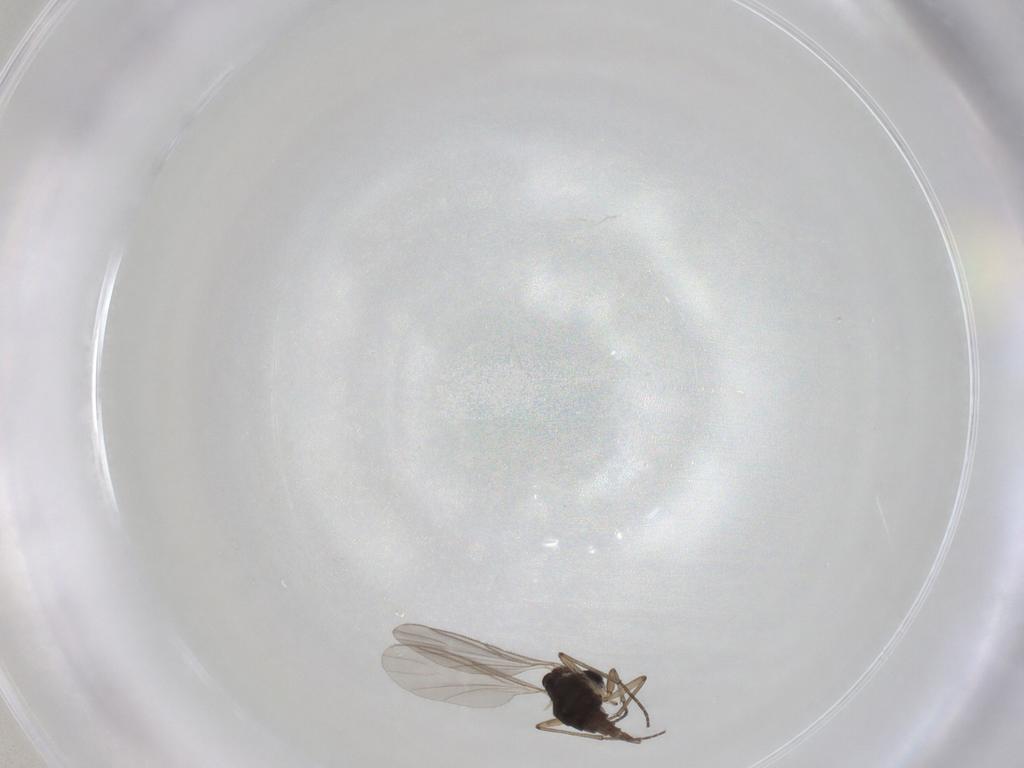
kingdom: Animalia
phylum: Arthropoda
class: Insecta
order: Diptera
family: Sciaridae
